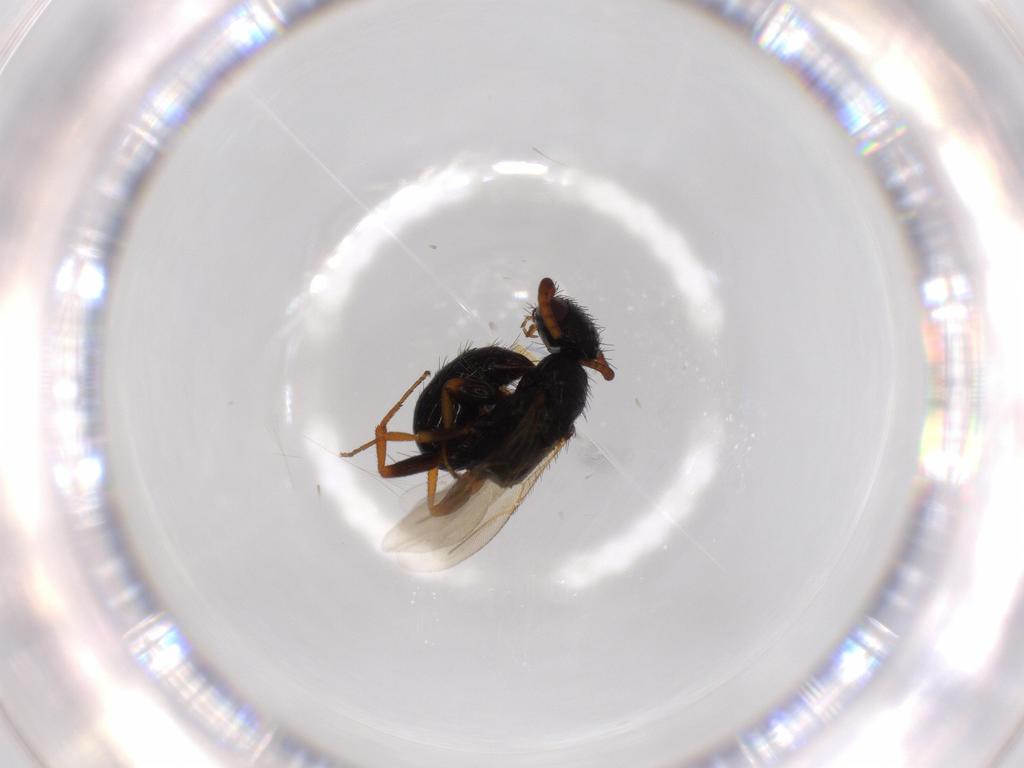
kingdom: Animalia
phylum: Arthropoda
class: Insecta
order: Hymenoptera
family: Bethylidae
